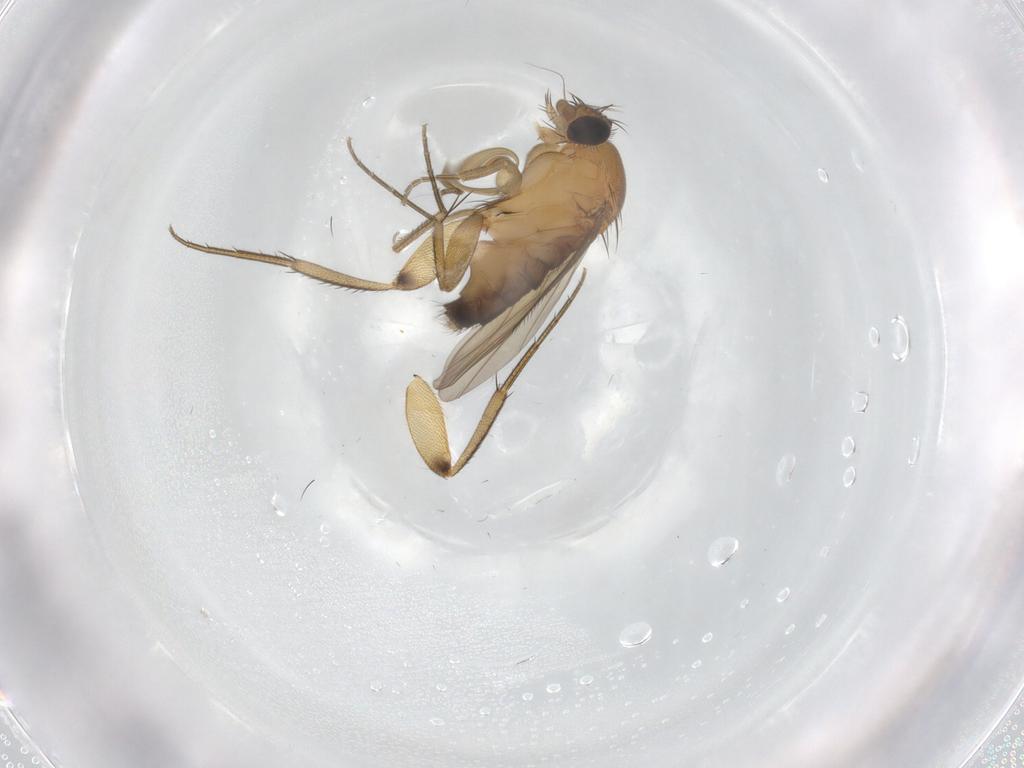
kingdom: Animalia
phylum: Arthropoda
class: Insecta
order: Diptera
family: Phoridae
